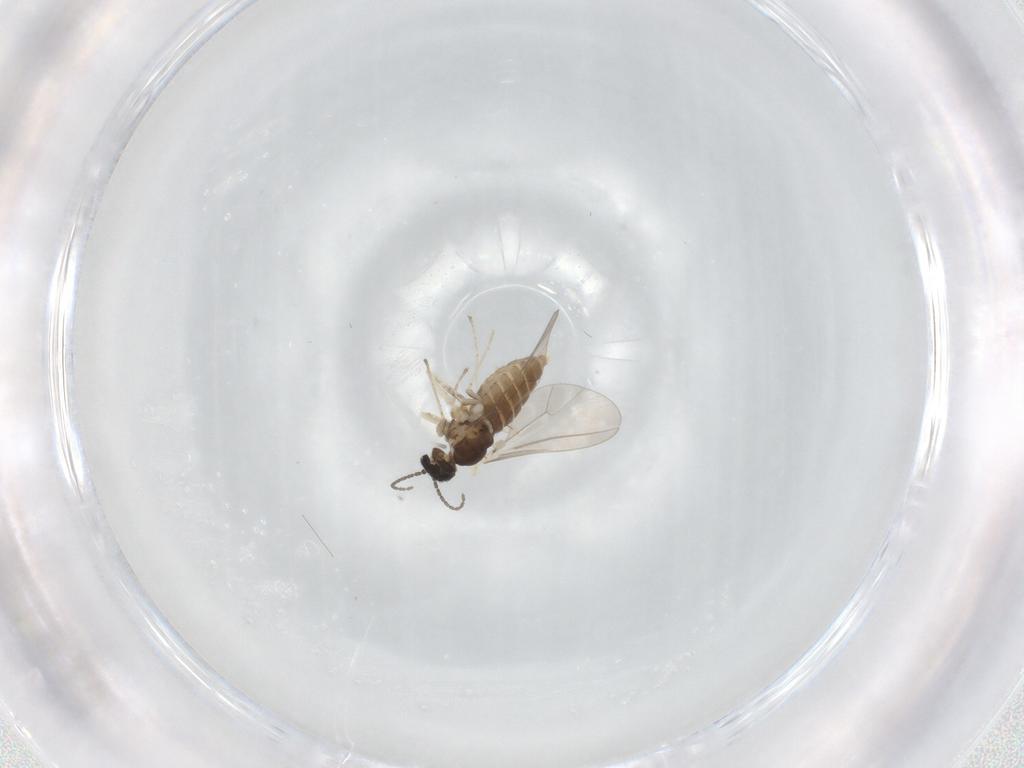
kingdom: Animalia
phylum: Arthropoda
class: Insecta
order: Diptera
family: Cecidomyiidae
